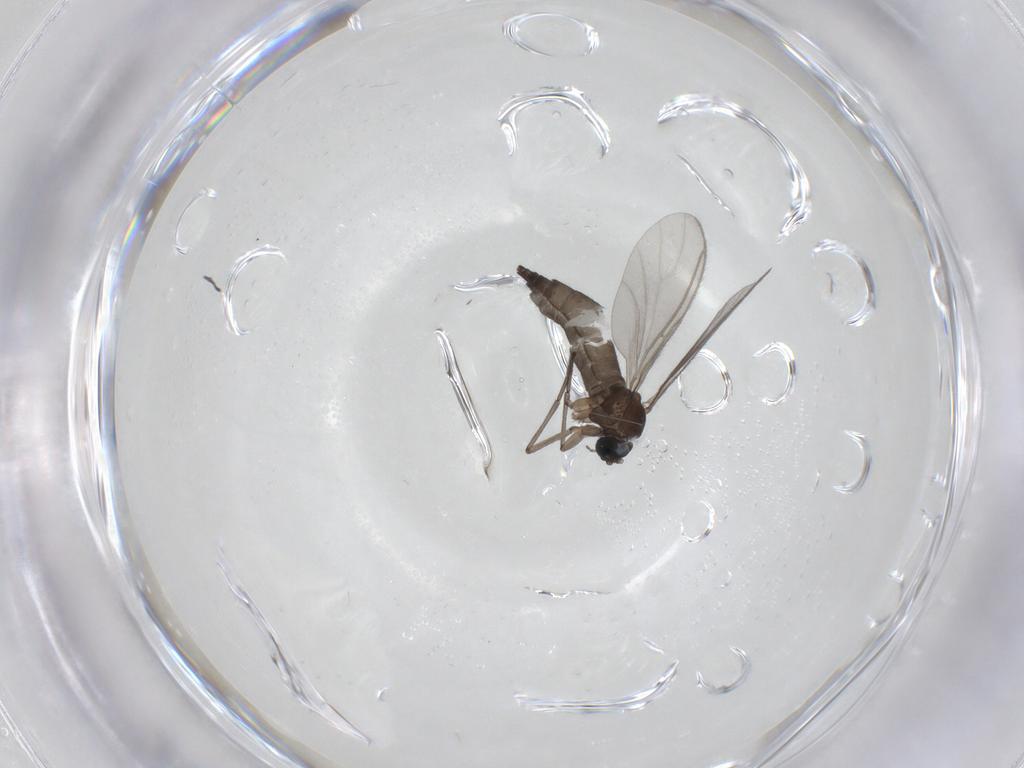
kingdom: Animalia
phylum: Arthropoda
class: Insecta
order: Diptera
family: Sciaridae
